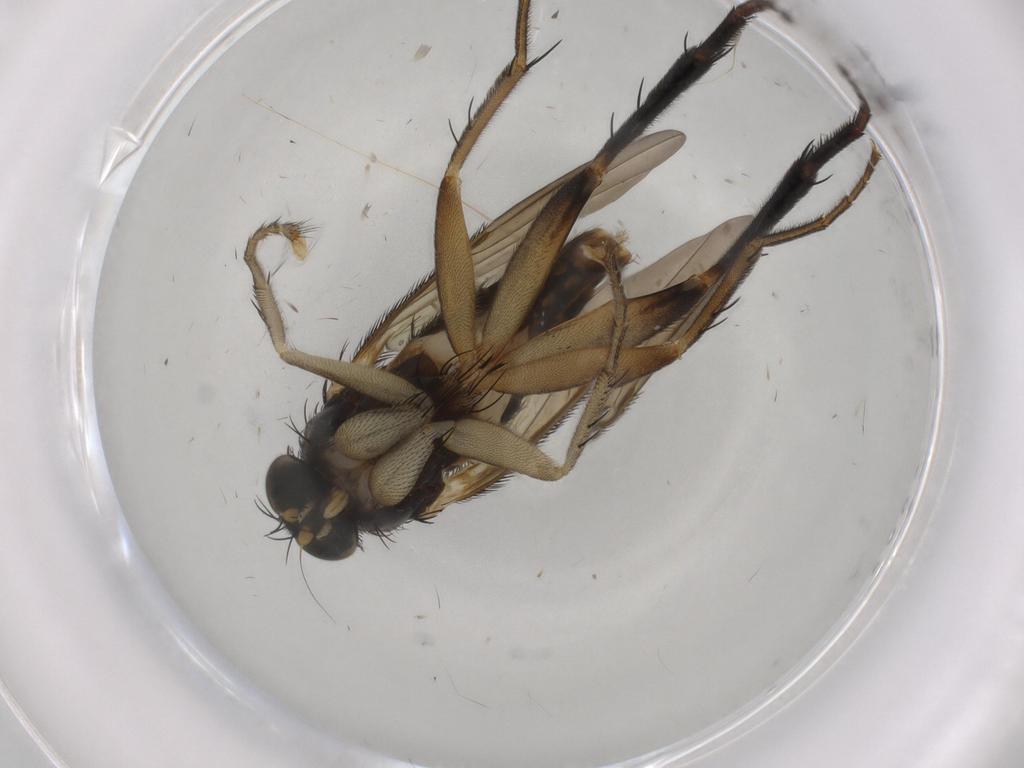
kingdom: Animalia
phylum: Arthropoda
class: Insecta
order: Diptera
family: Phoridae
